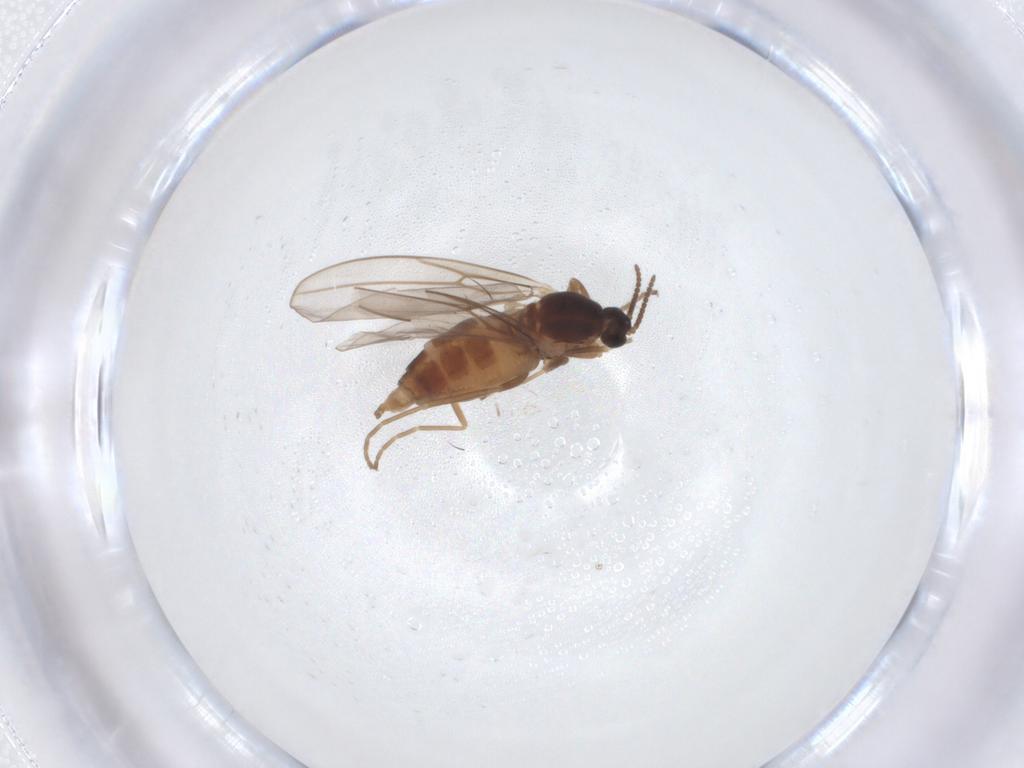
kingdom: Animalia
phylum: Arthropoda
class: Insecta
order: Diptera
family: Cecidomyiidae
